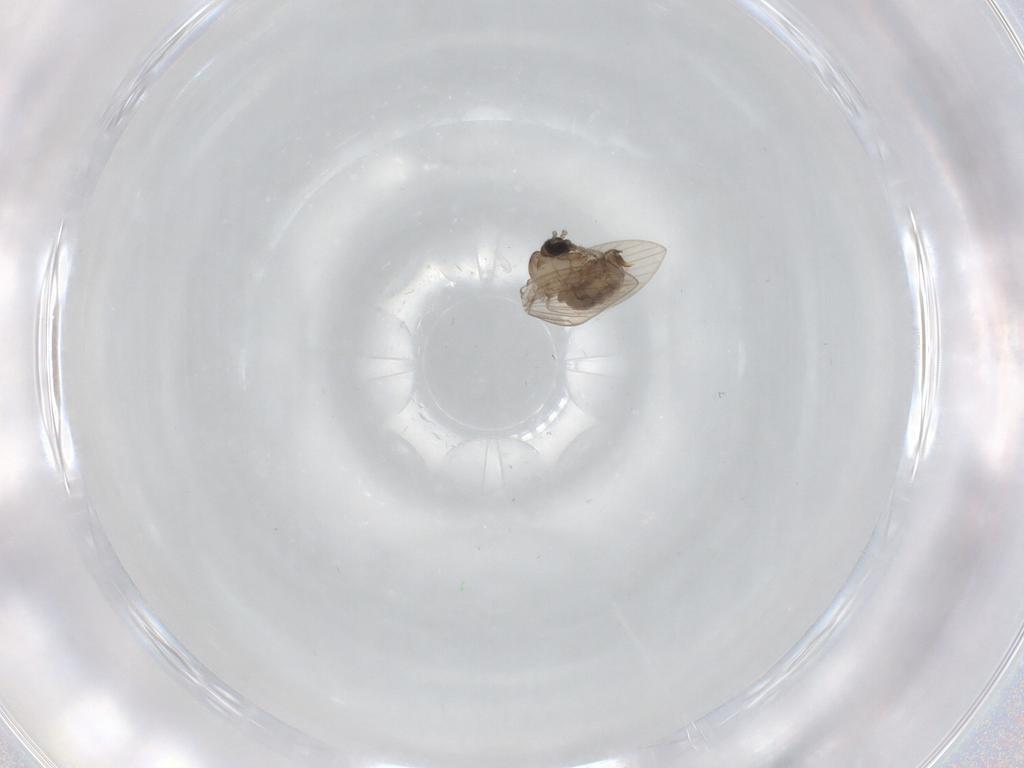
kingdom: Animalia
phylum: Arthropoda
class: Insecta
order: Diptera
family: Psychodidae
